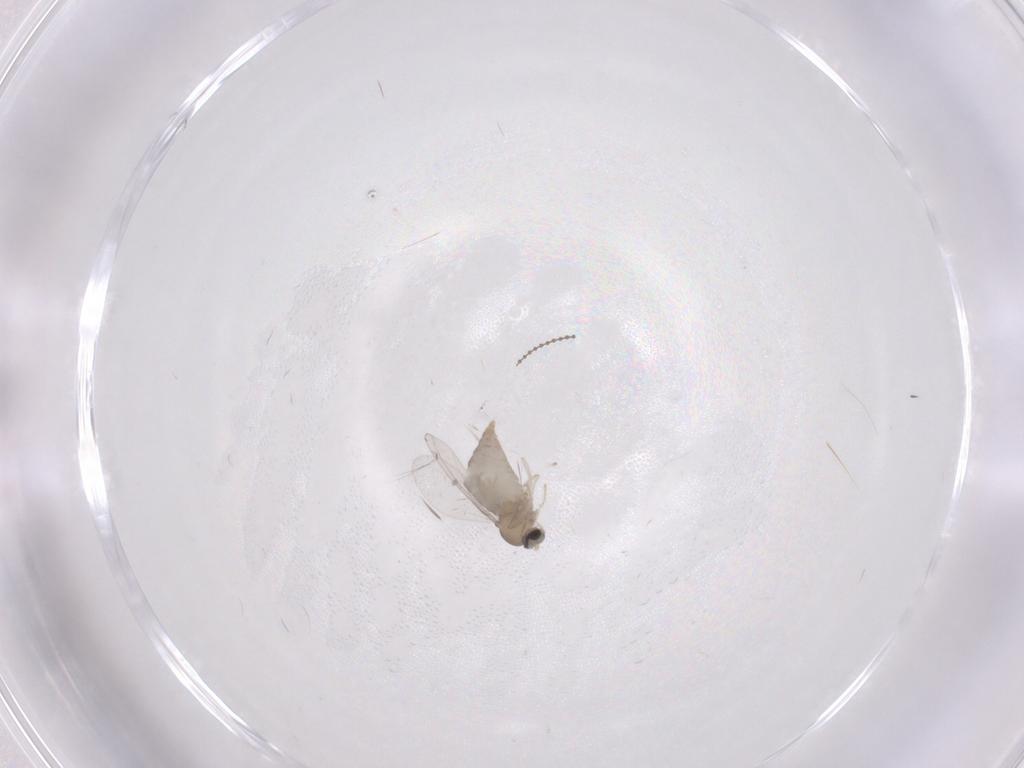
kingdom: Animalia
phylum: Arthropoda
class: Insecta
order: Diptera
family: Cecidomyiidae
